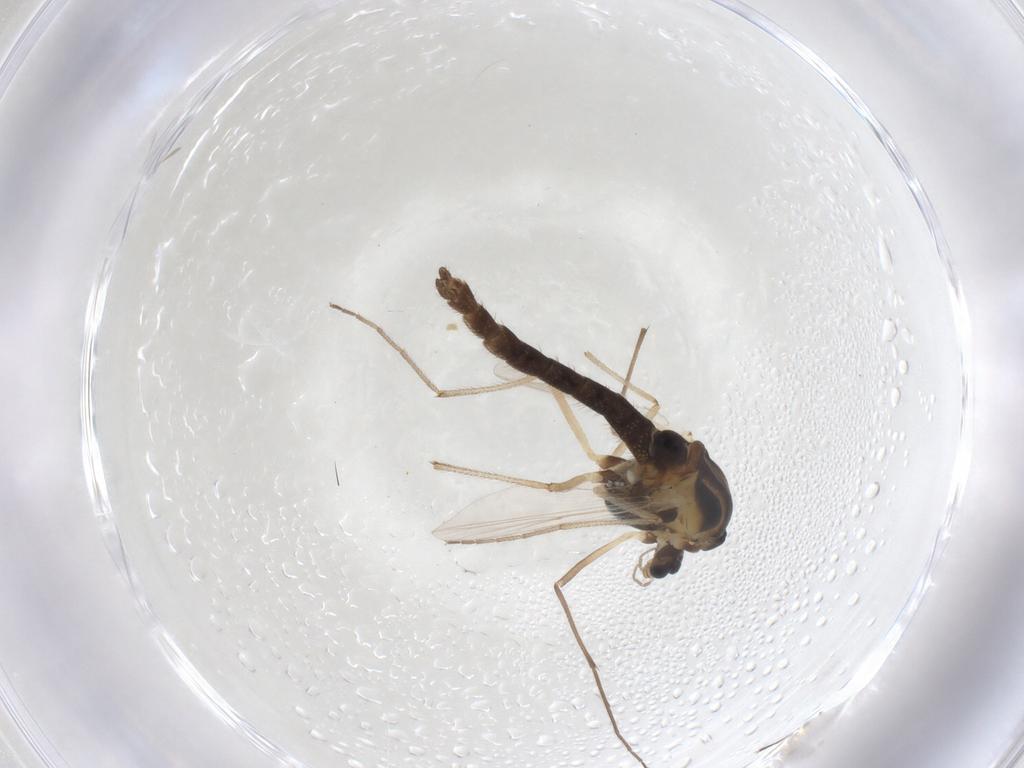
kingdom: Animalia
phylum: Arthropoda
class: Insecta
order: Diptera
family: Chironomidae
